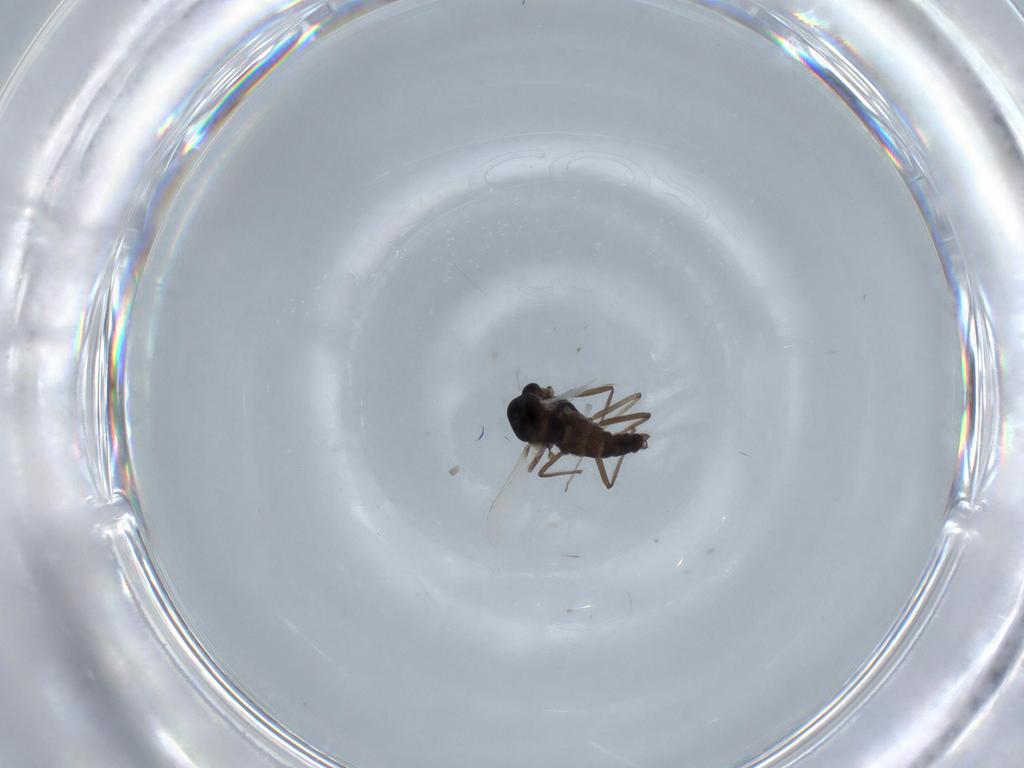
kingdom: Animalia
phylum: Arthropoda
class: Insecta
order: Diptera
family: Chironomidae
